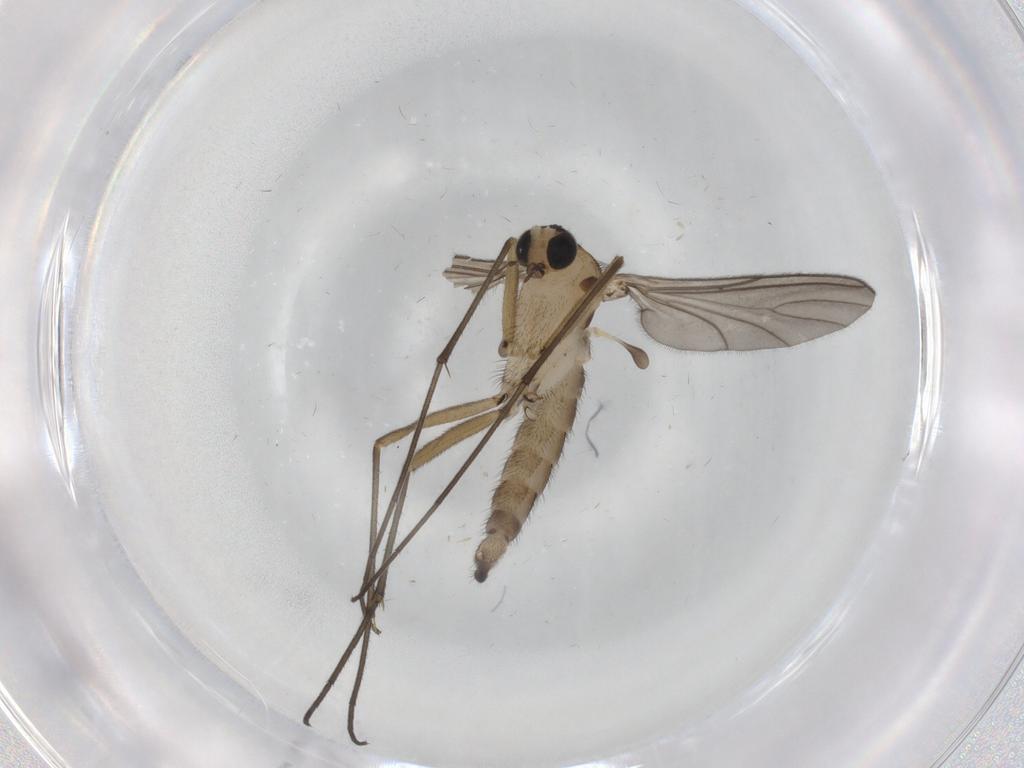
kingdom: Animalia
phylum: Arthropoda
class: Insecta
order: Diptera
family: Sciaridae
